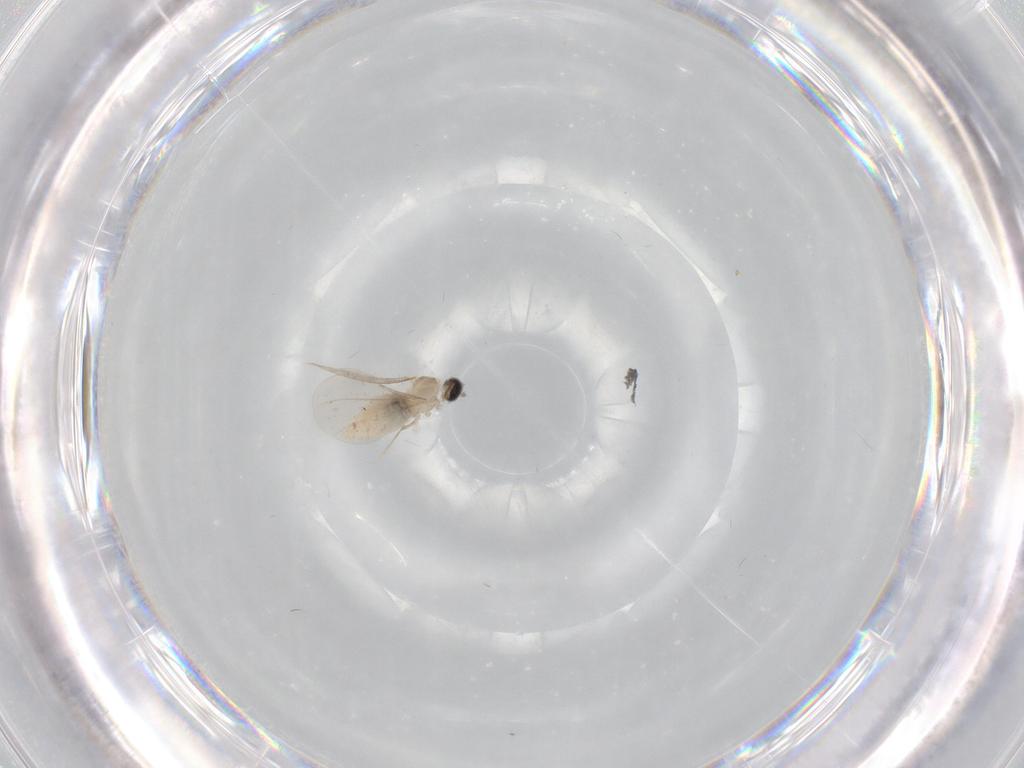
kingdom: Animalia
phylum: Arthropoda
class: Insecta
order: Diptera
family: Cecidomyiidae
